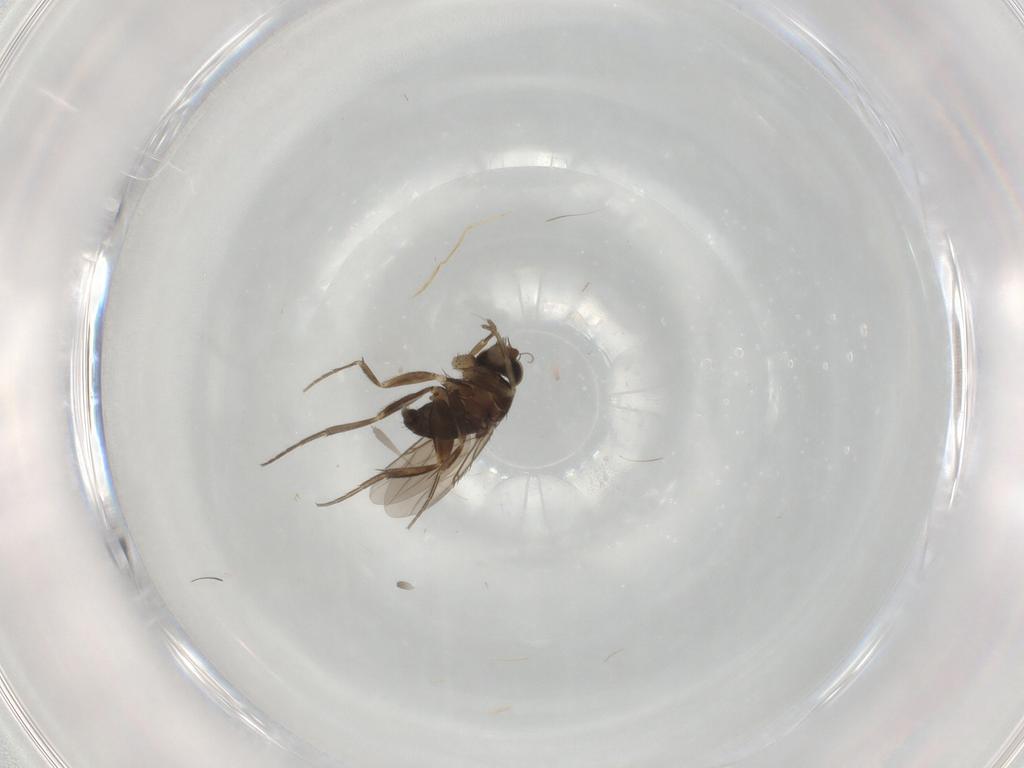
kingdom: Animalia
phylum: Arthropoda
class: Insecta
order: Diptera
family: Phoridae
